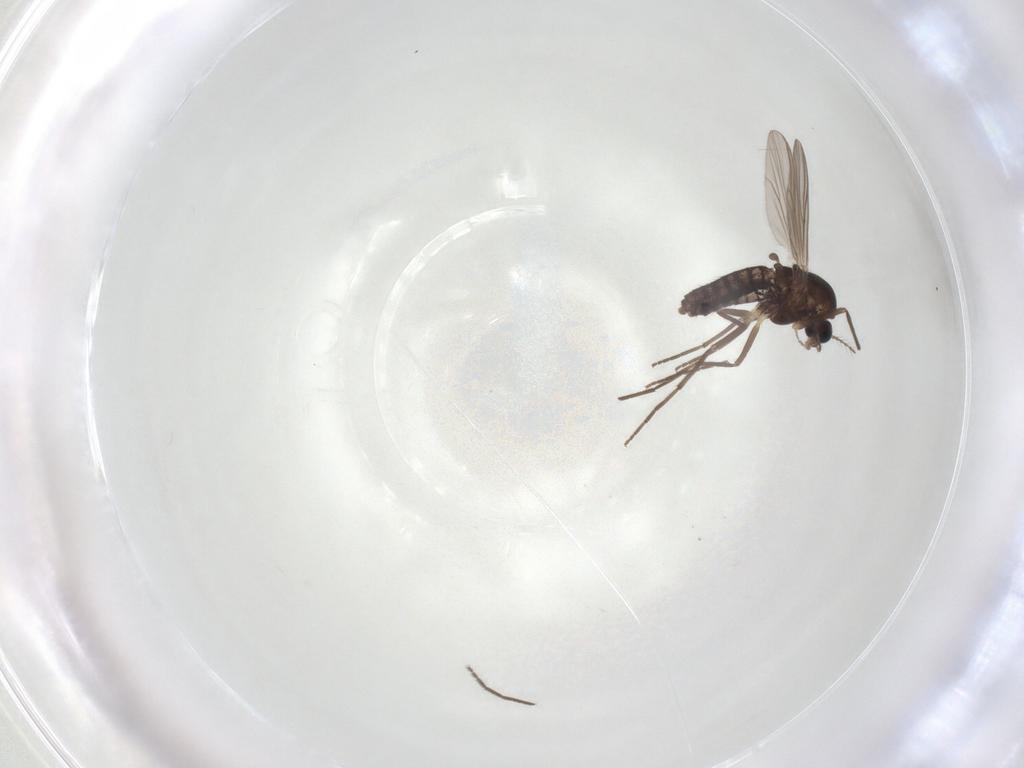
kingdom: Animalia
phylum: Arthropoda
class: Insecta
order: Diptera
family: Chironomidae
